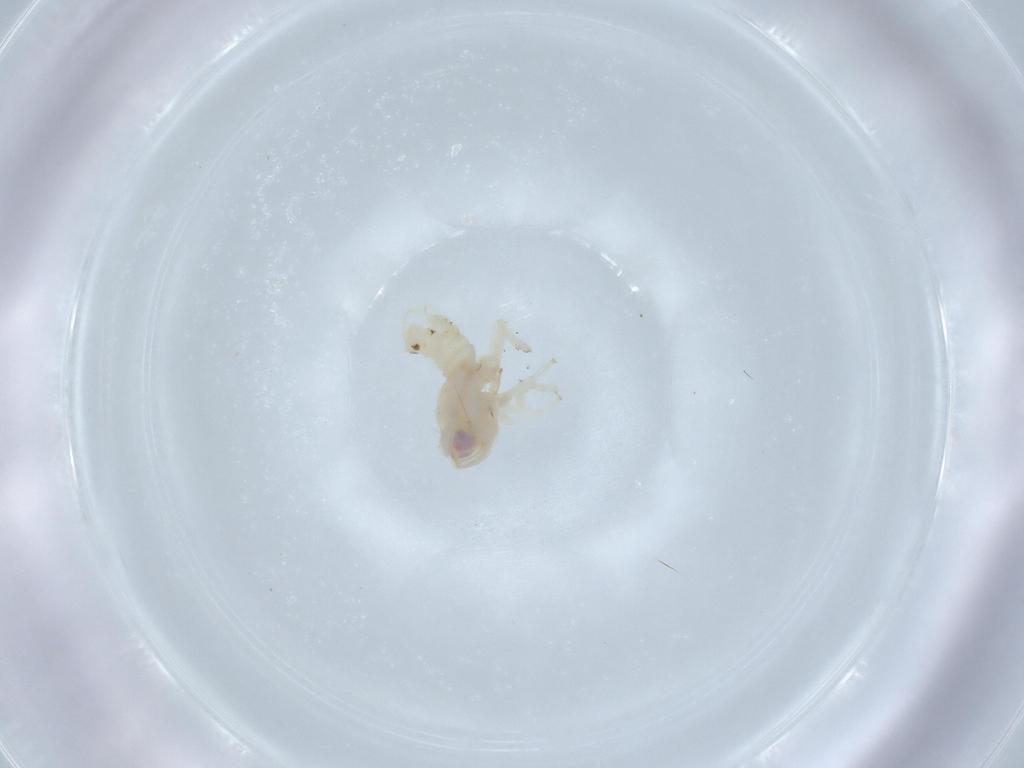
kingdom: Animalia
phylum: Arthropoda
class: Insecta
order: Hemiptera
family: Nogodinidae
